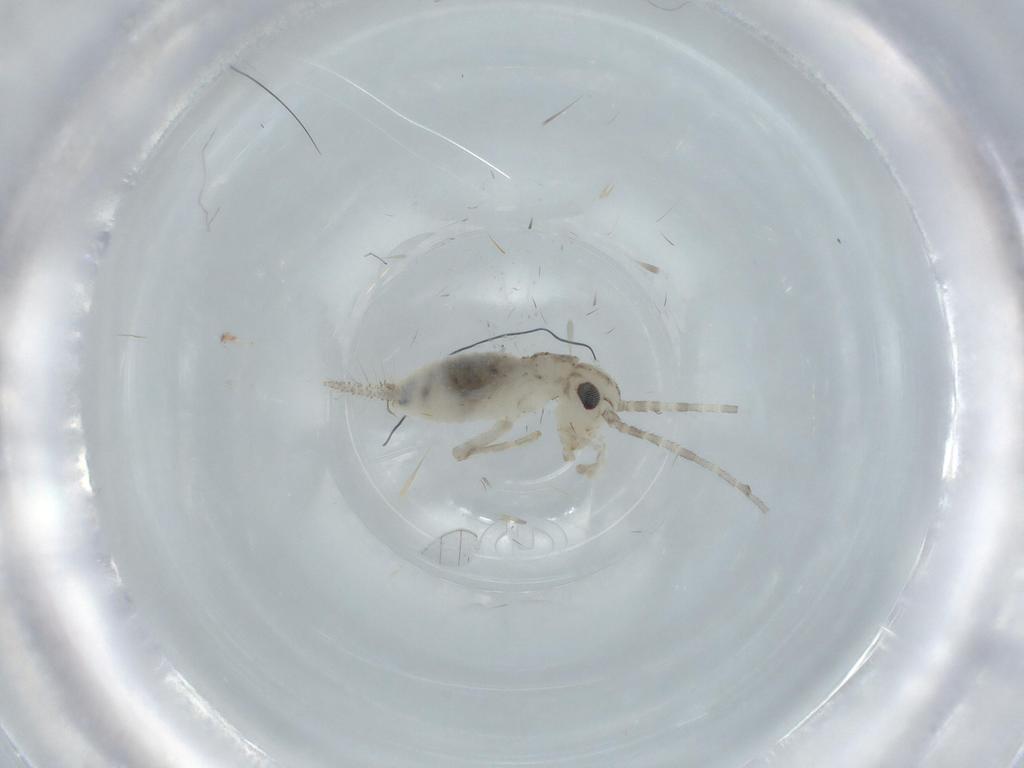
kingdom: Animalia
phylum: Arthropoda
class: Insecta
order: Orthoptera
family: Trigonidiidae
